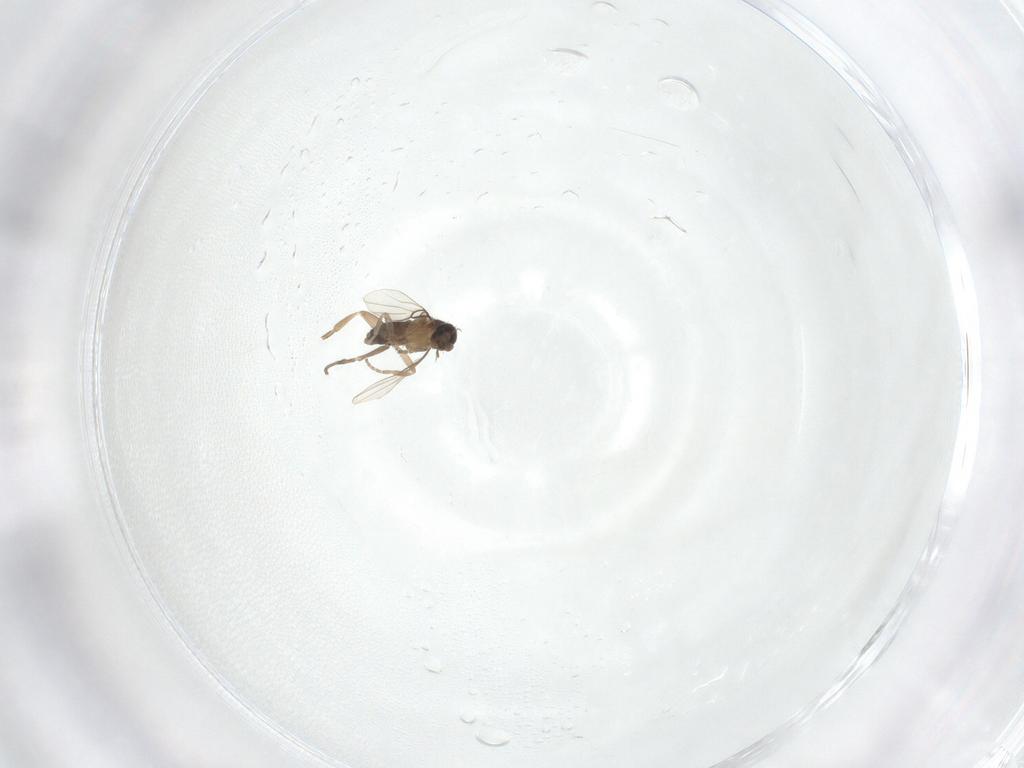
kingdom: Animalia
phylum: Arthropoda
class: Insecta
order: Diptera
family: Phoridae
